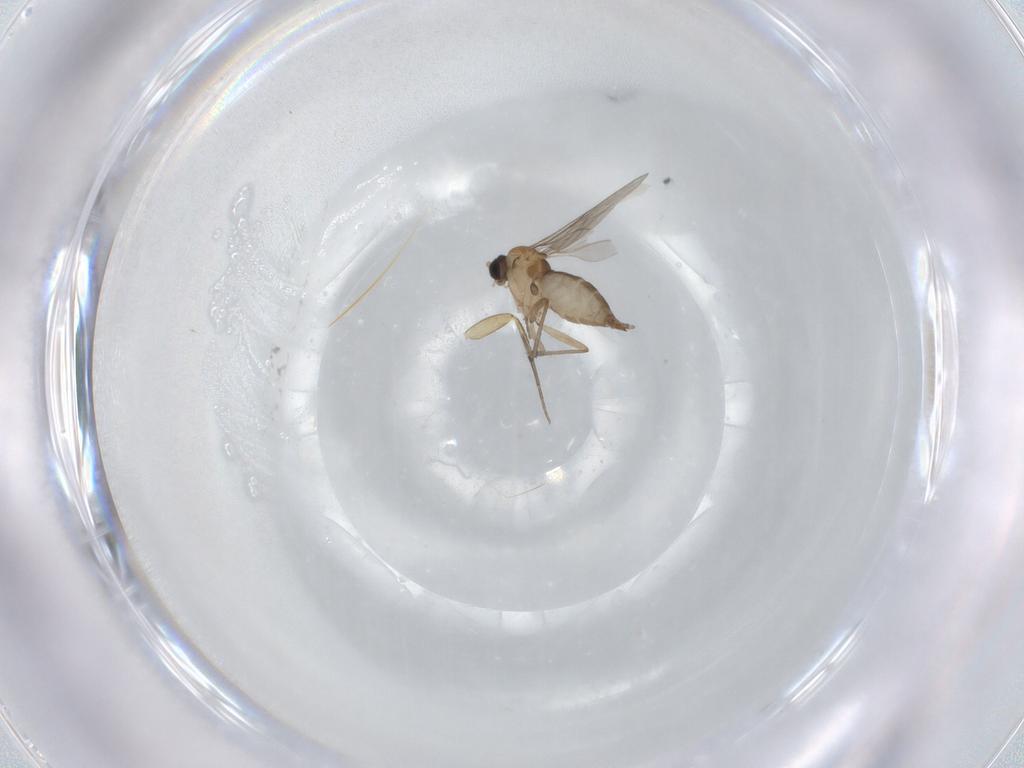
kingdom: Animalia
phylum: Arthropoda
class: Insecta
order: Diptera
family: Sciaridae
